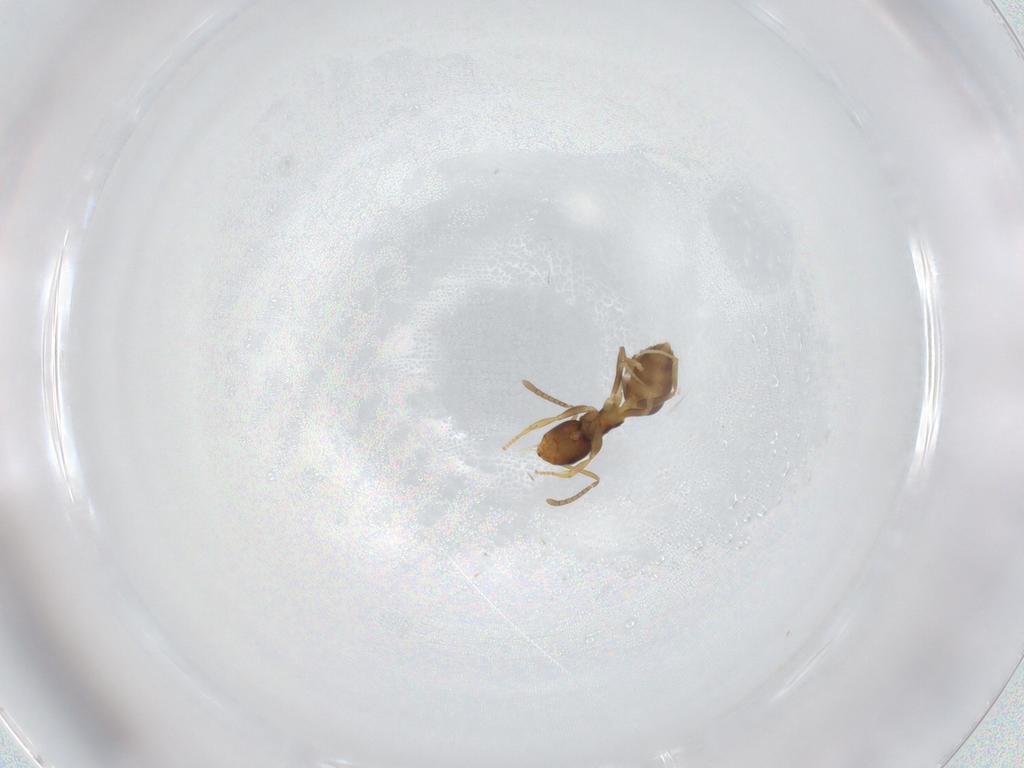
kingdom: Animalia
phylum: Arthropoda
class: Insecta
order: Hymenoptera
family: Formicidae
